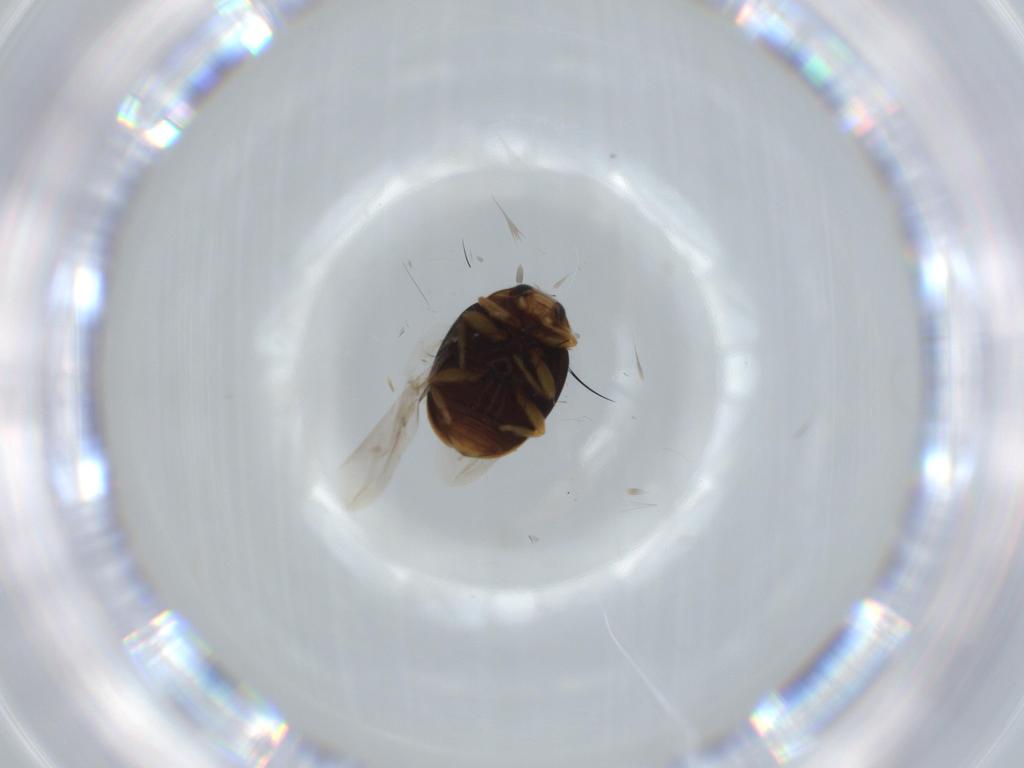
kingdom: Animalia
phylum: Arthropoda
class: Insecta
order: Coleoptera
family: Coccinellidae
